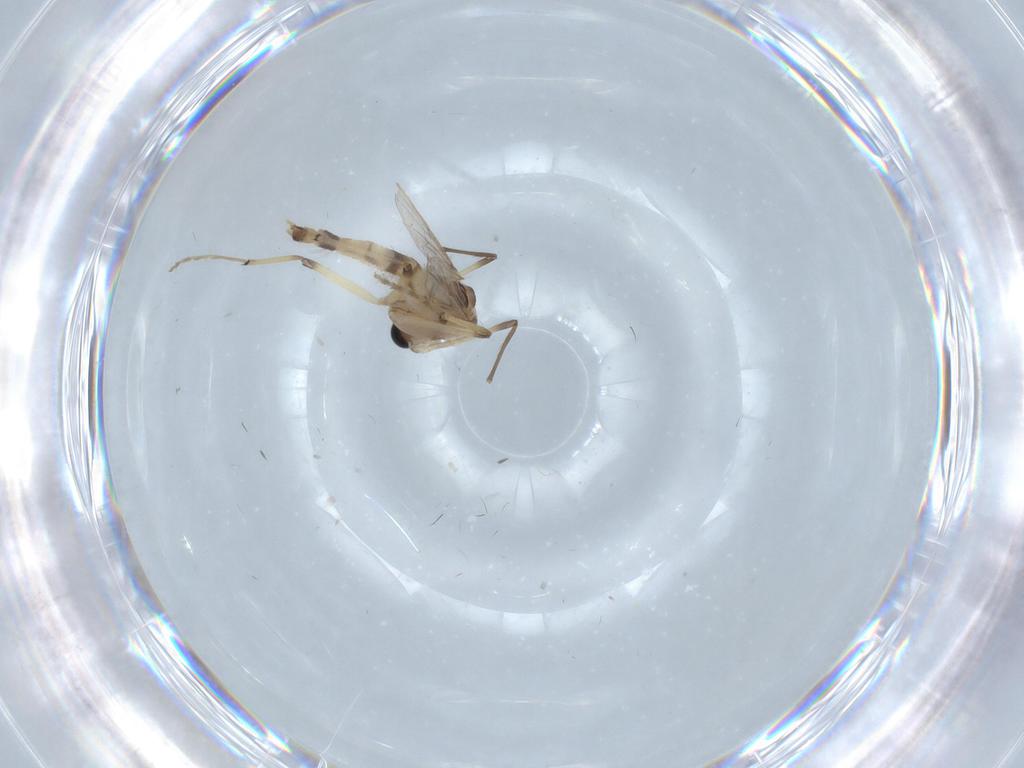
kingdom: Animalia
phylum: Arthropoda
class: Insecta
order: Diptera
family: Chironomidae
